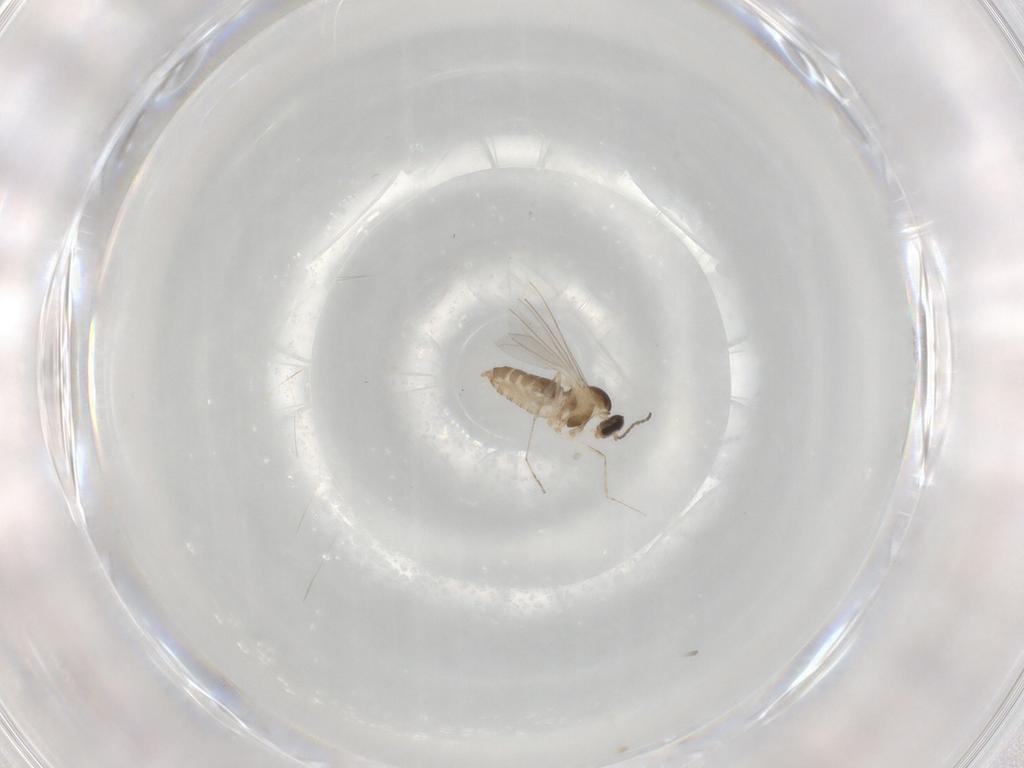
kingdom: Animalia
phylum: Arthropoda
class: Insecta
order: Diptera
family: Cecidomyiidae
